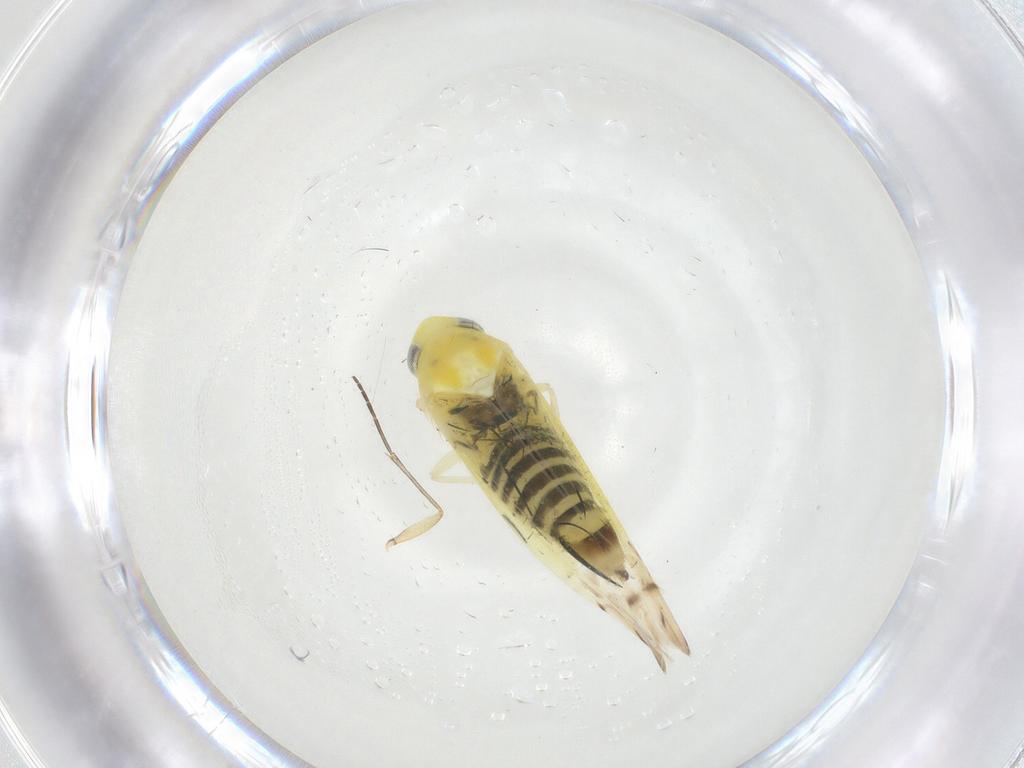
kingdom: Animalia
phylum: Arthropoda
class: Insecta
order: Hemiptera
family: Cicadellidae
